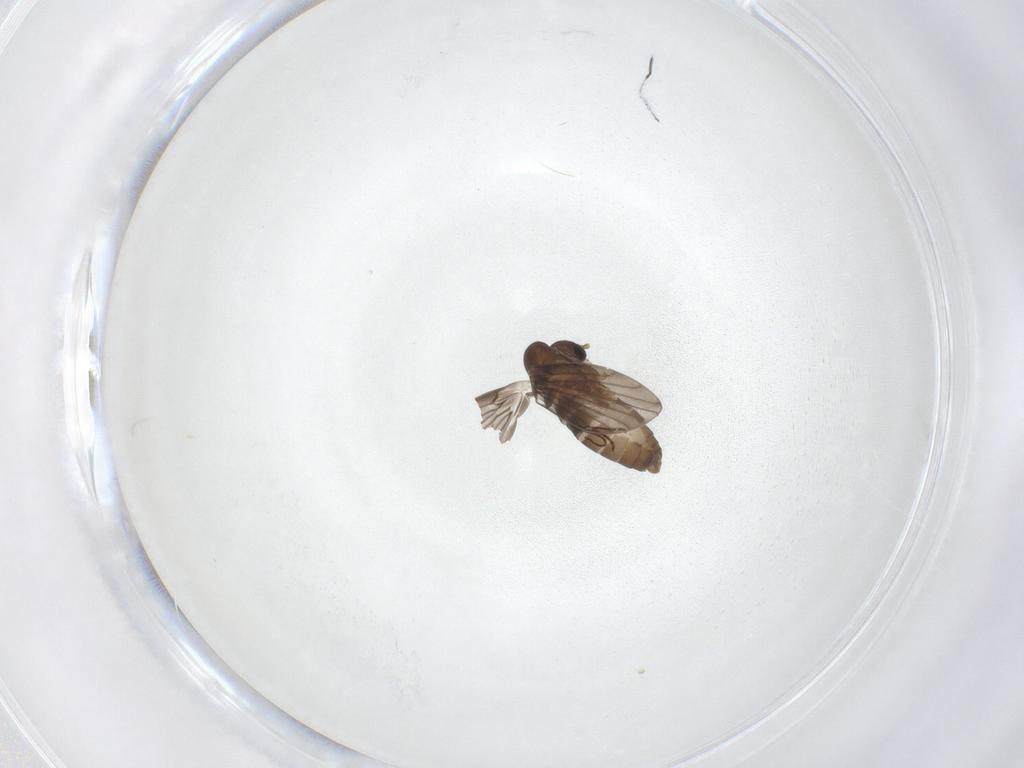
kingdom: Animalia
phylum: Arthropoda
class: Insecta
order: Diptera
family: Psychodidae
